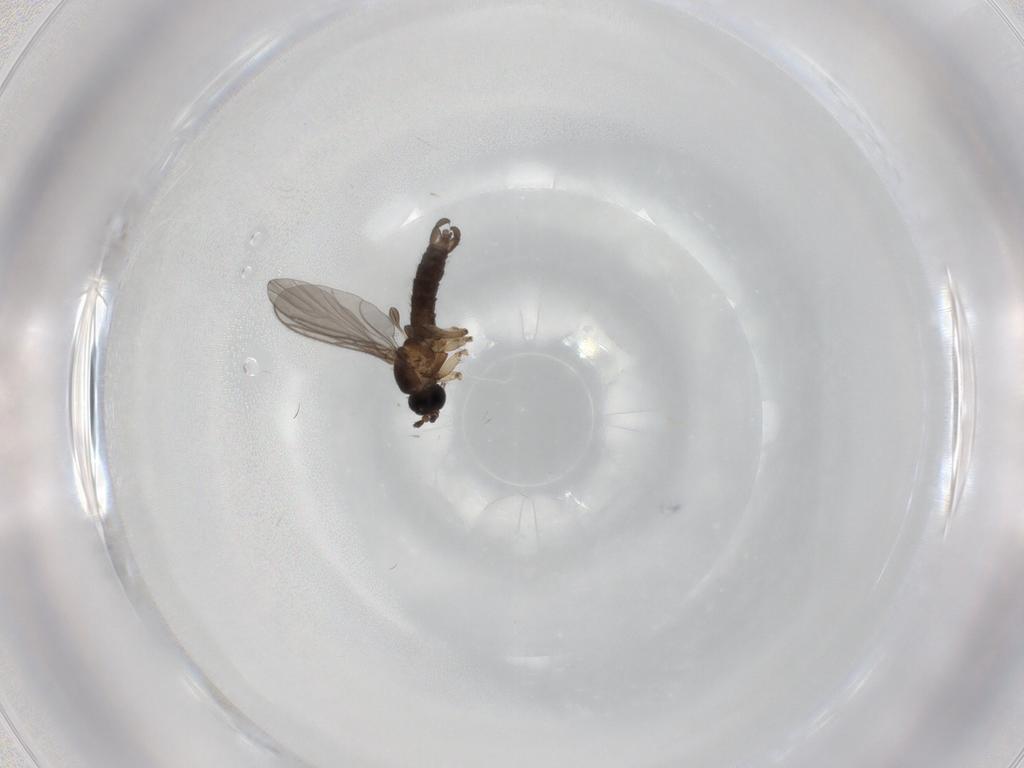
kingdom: Animalia
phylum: Arthropoda
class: Insecta
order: Diptera
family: Sciaridae
